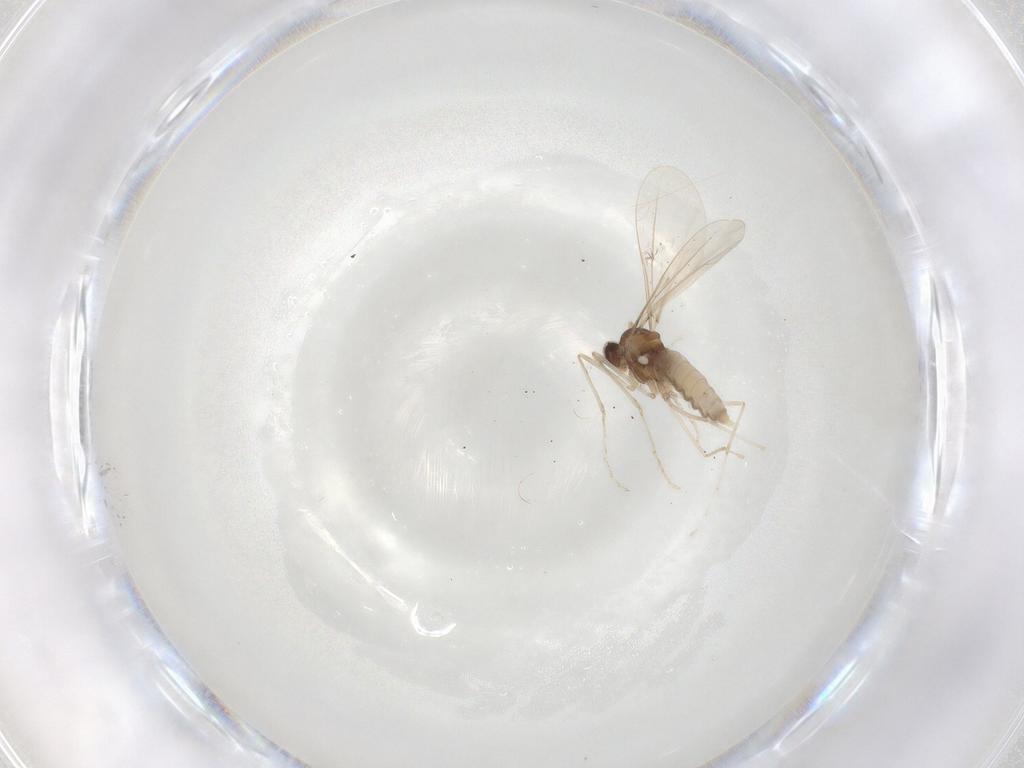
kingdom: Animalia
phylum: Arthropoda
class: Insecta
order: Diptera
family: Cecidomyiidae
